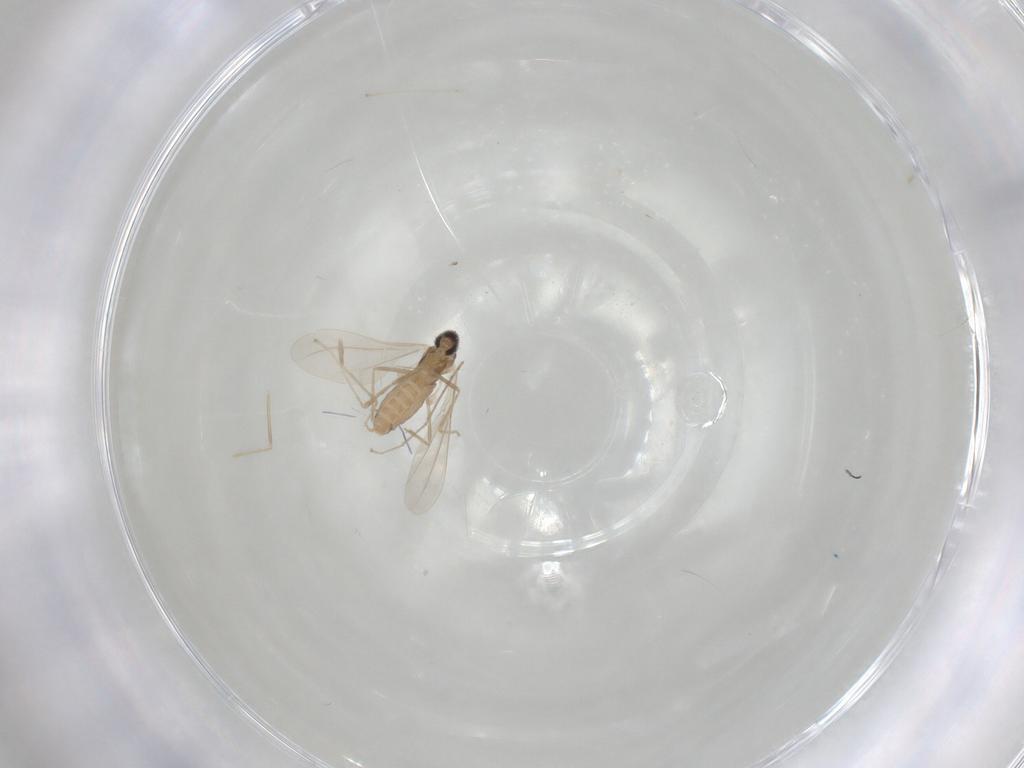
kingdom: Animalia
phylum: Arthropoda
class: Insecta
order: Diptera
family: Cecidomyiidae
